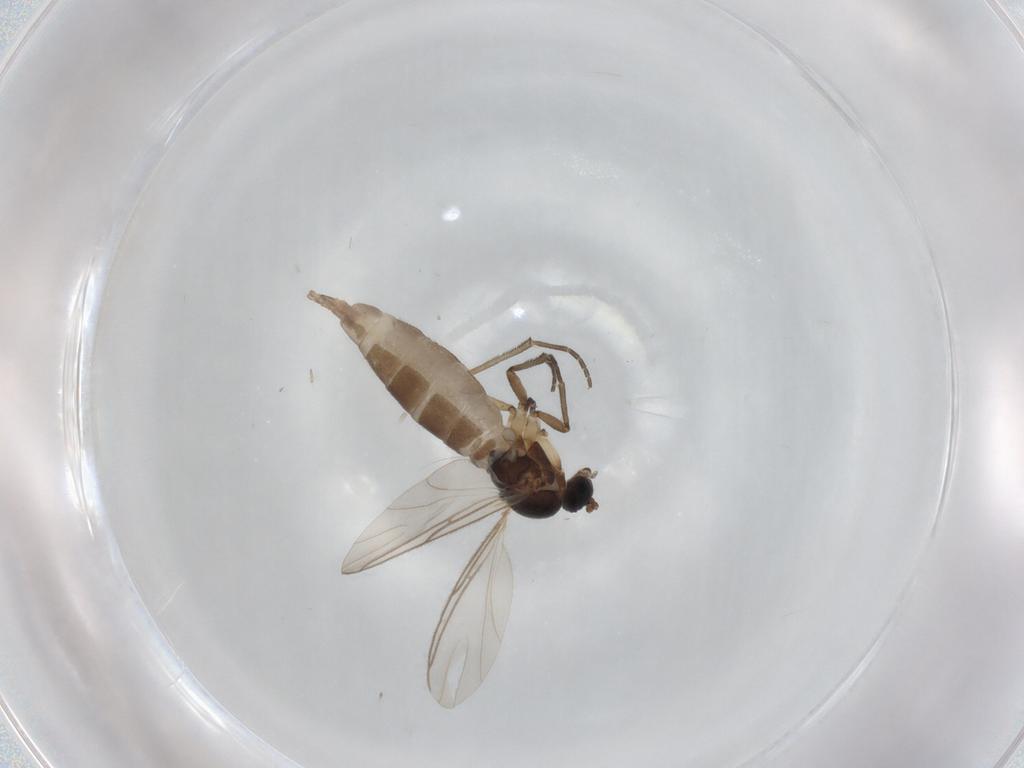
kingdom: Animalia
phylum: Arthropoda
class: Insecta
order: Diptera
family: Sciaridae
